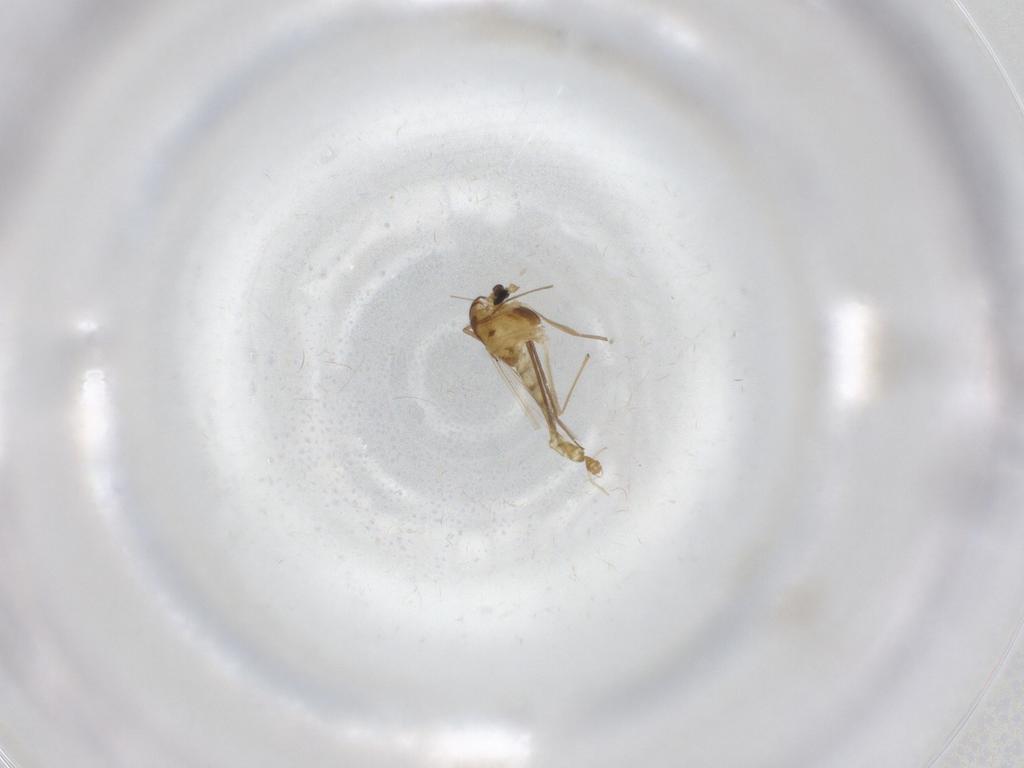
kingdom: Animalia
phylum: Arthropoda
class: Insecta
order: Diptera
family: Chironomidae
